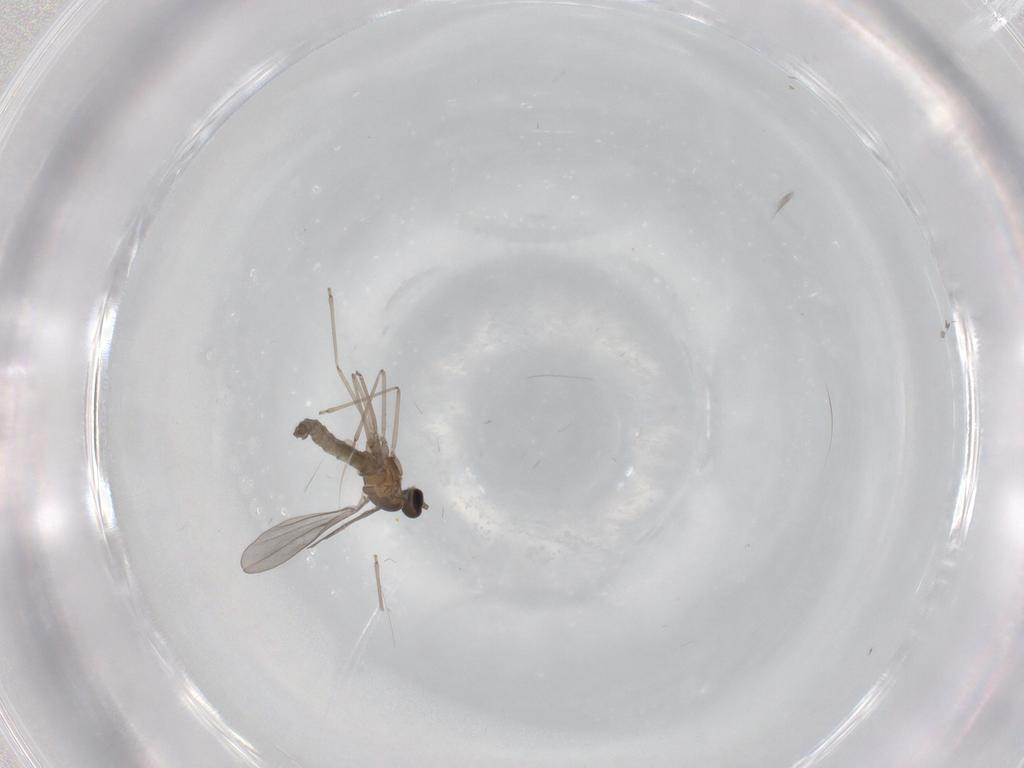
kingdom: Animalia
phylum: Arthropoda
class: Insecta
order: Diptera
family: Cecidomyiidae
